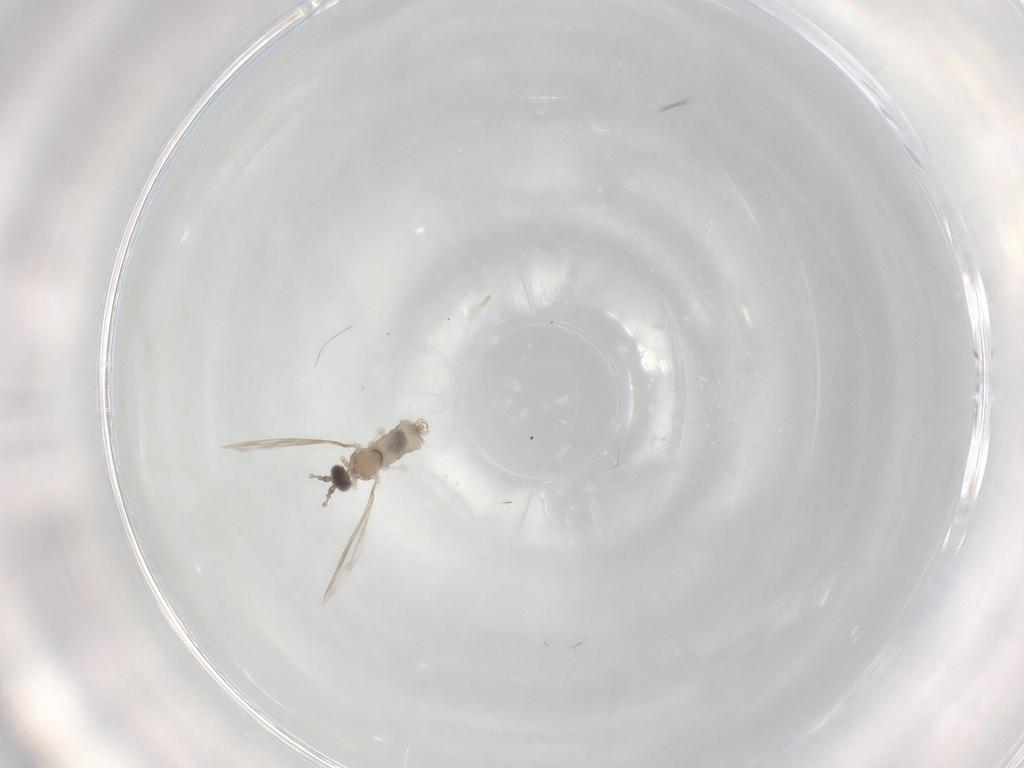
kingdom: Animalia
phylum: Arthropoda
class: Insecta
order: Diptera
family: Cecidomyiidae
